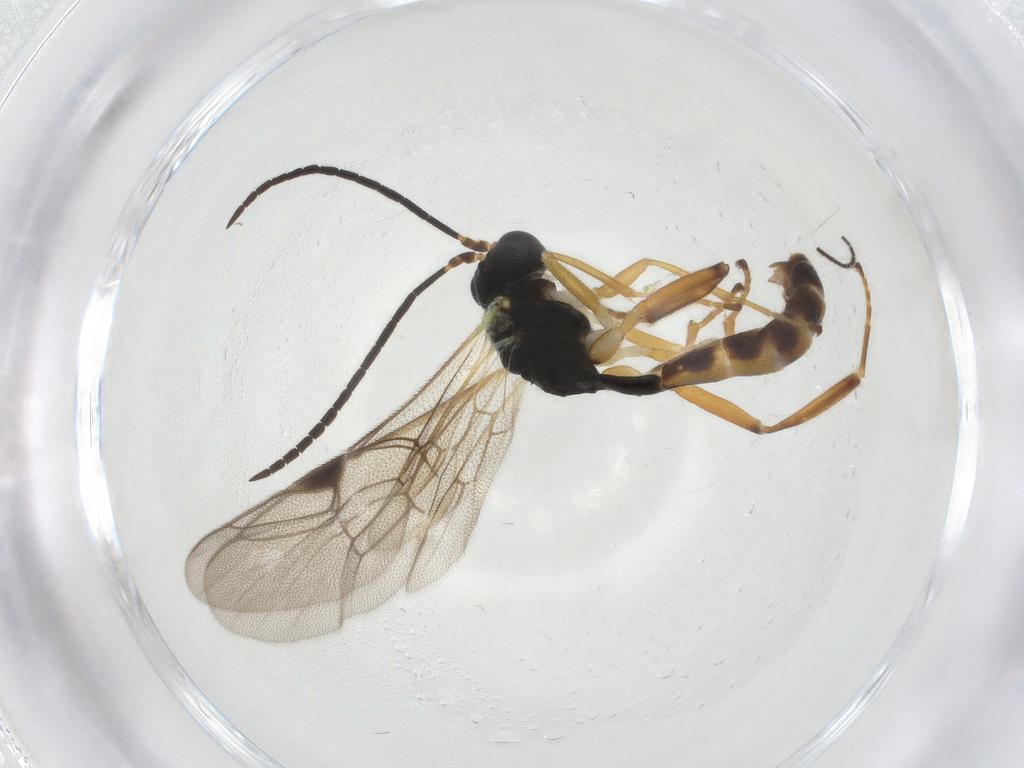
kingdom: Animalia
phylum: Arthropoda
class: Insecta
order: Hymenoptera
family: Ichneumonidae
